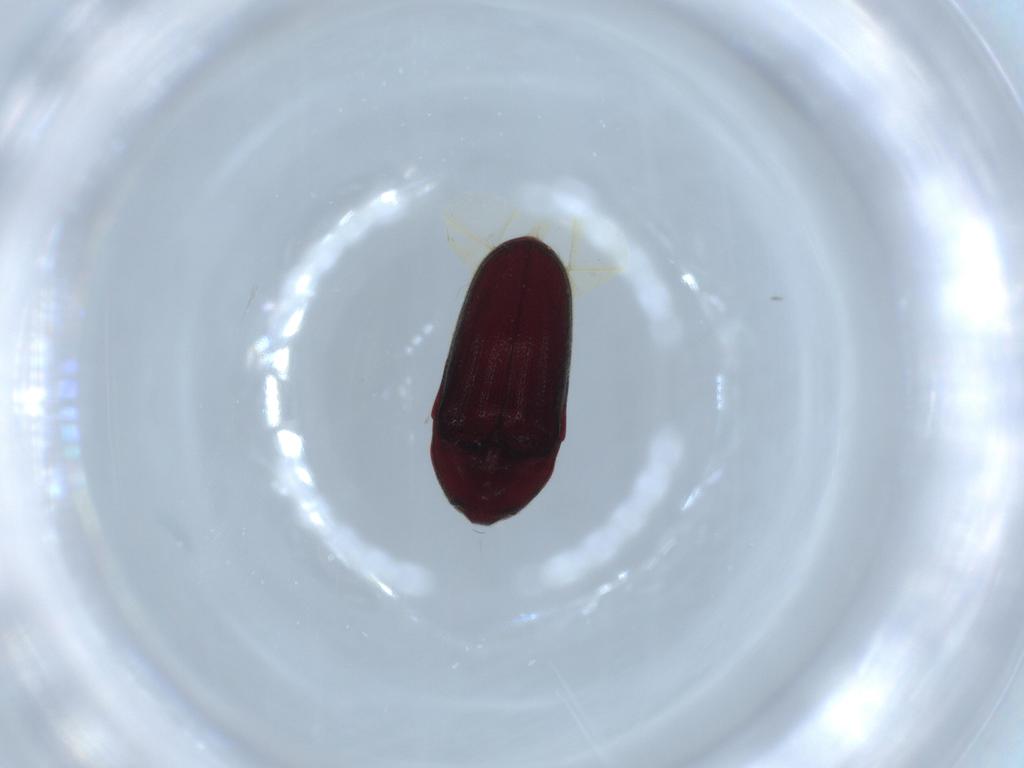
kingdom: Animalia
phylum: Arthropoda
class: Insecta
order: Coleoptera
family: Throscidae
